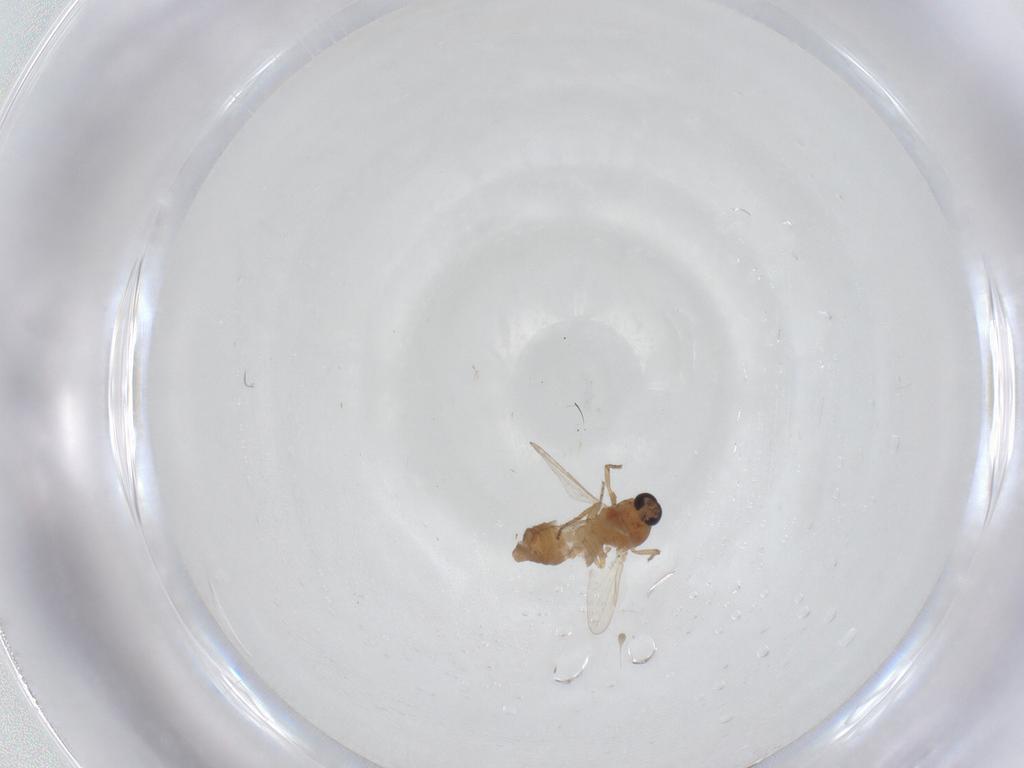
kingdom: Animalia
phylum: Arthropoda
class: Insecta
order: Diptera
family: Ceratopogonidae
